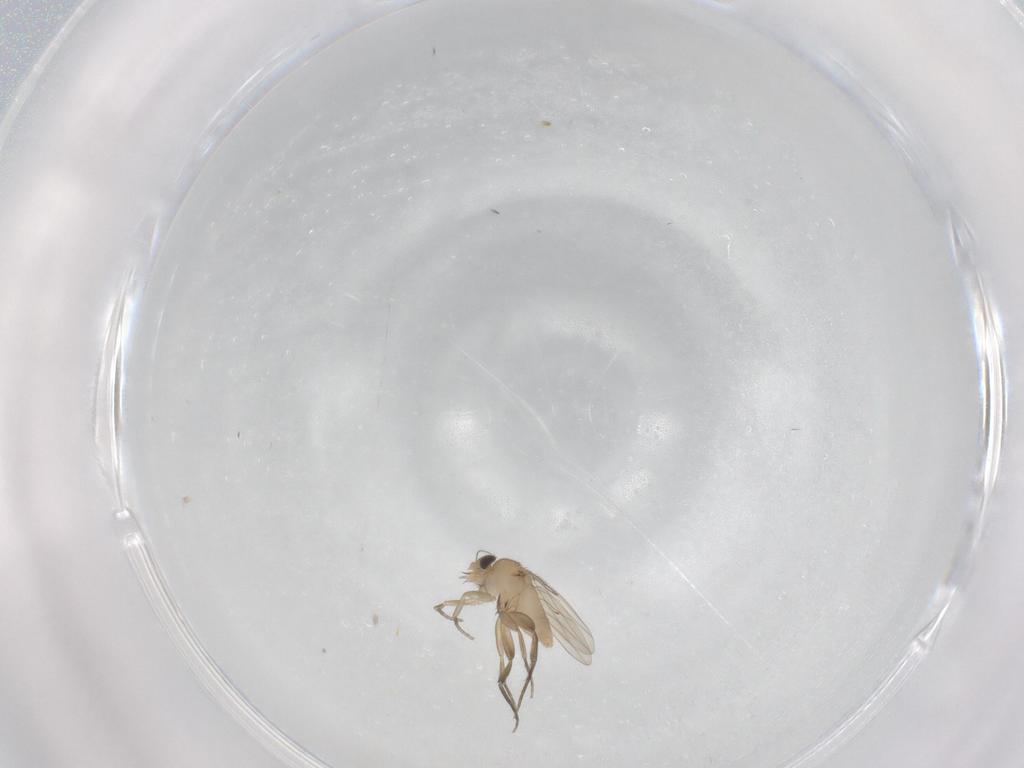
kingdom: Animalia
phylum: Arthropoda
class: Insecta
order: Diptera
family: Phoridae
